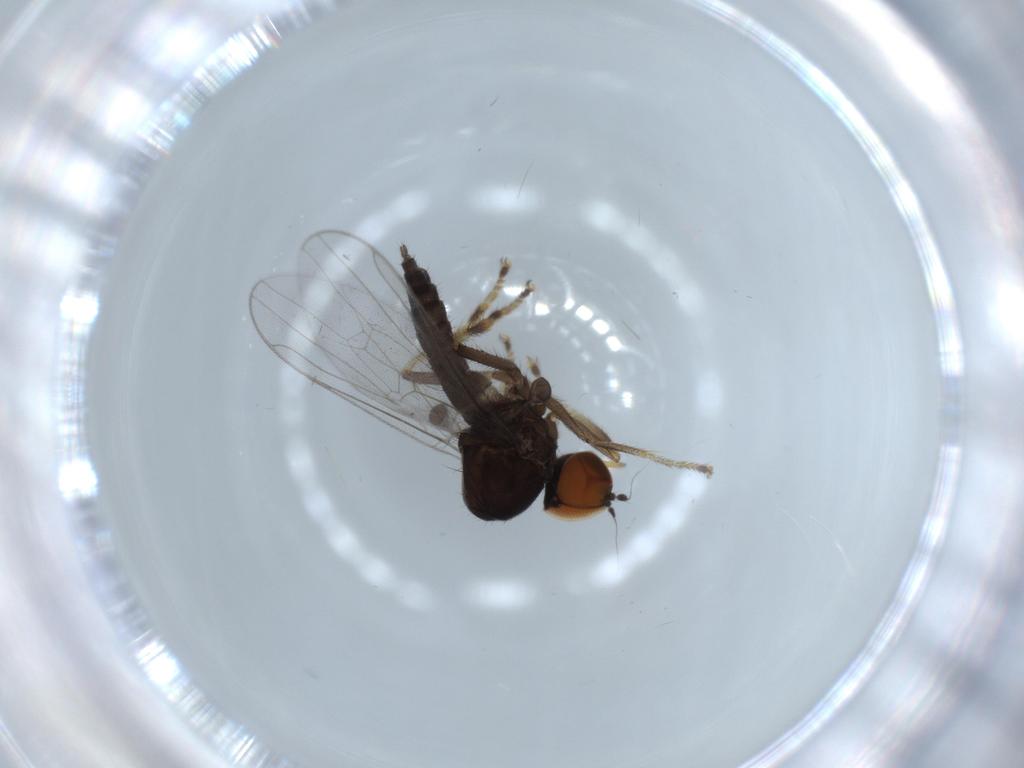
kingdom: Animalia
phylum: Arthropoda
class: Insecta
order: Diptera
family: Hybotidae
